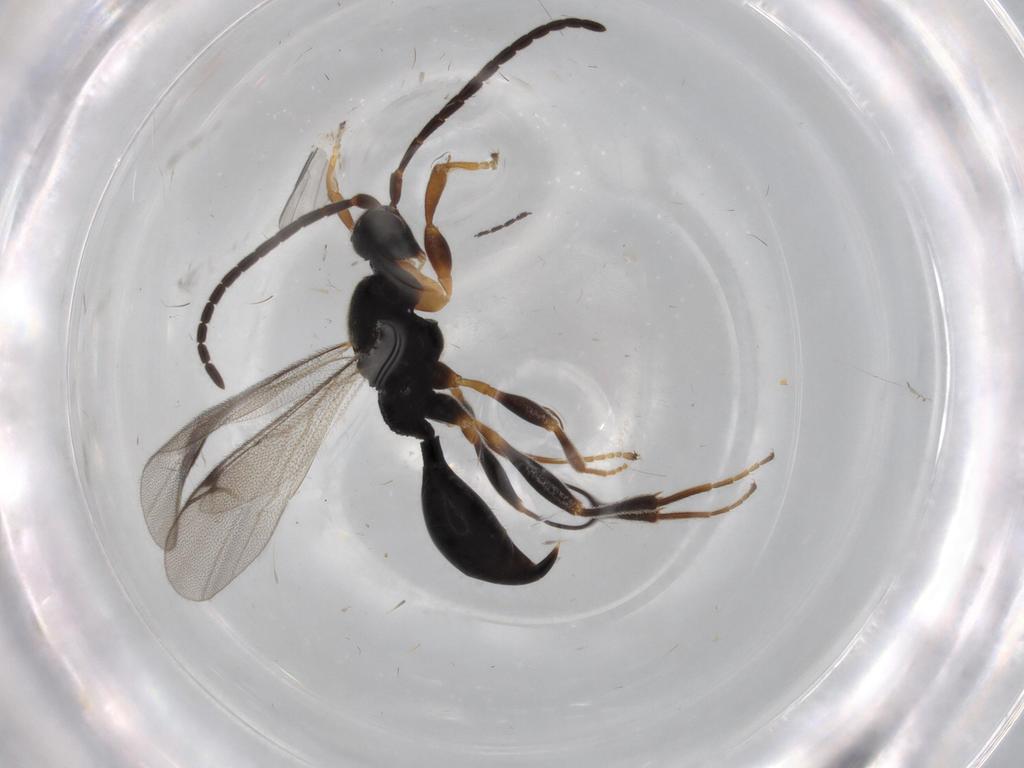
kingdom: Animalia
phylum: Arthropoda
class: Insecta
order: Hymenoptera
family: Proctotrupidae
